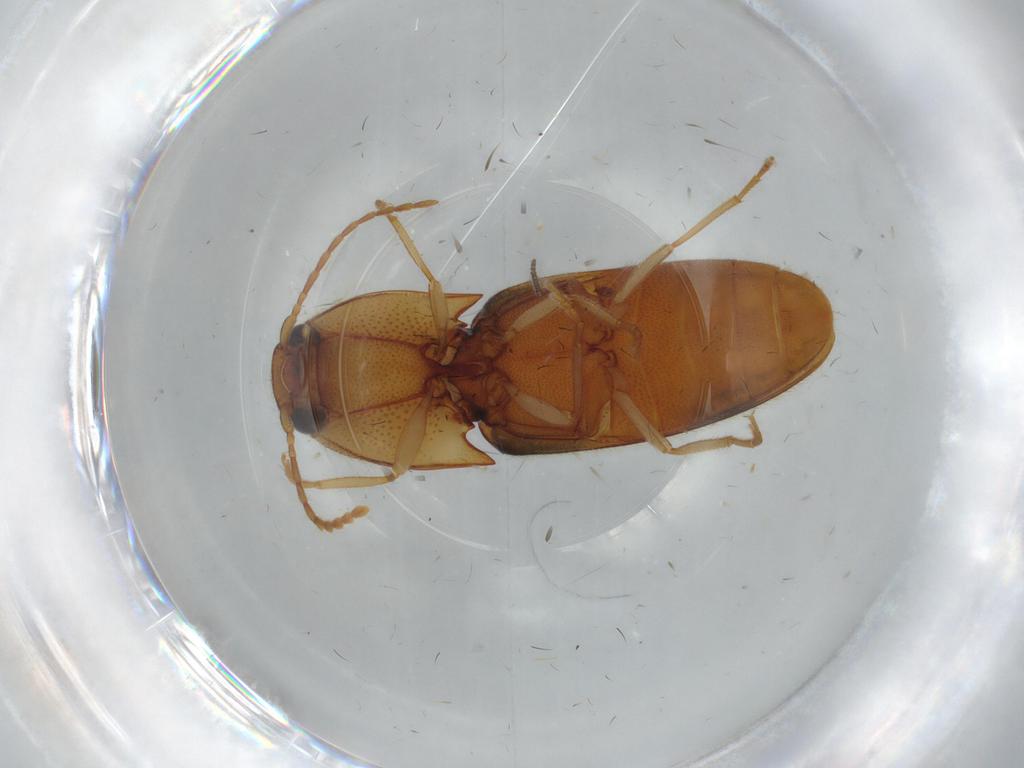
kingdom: Animalia
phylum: Arthropoda
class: Insecta
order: Coleoptera
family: Elateridae
